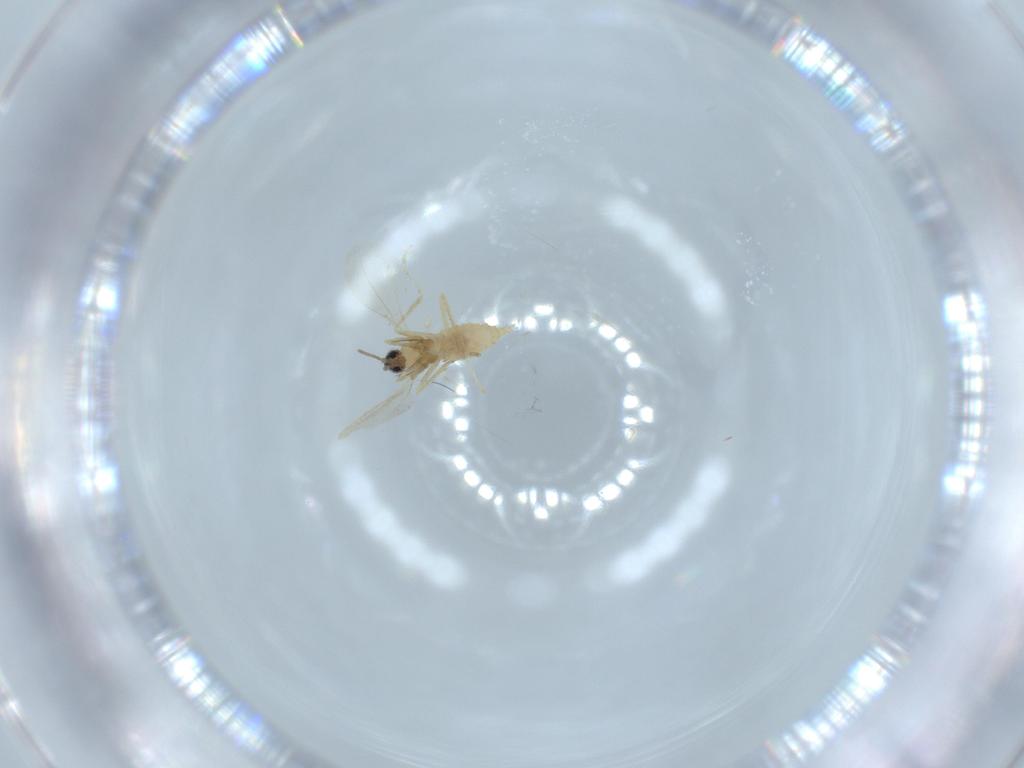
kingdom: Animalia
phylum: Arthropoda
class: Insecta
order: Diptera
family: Cecidomyiidae
